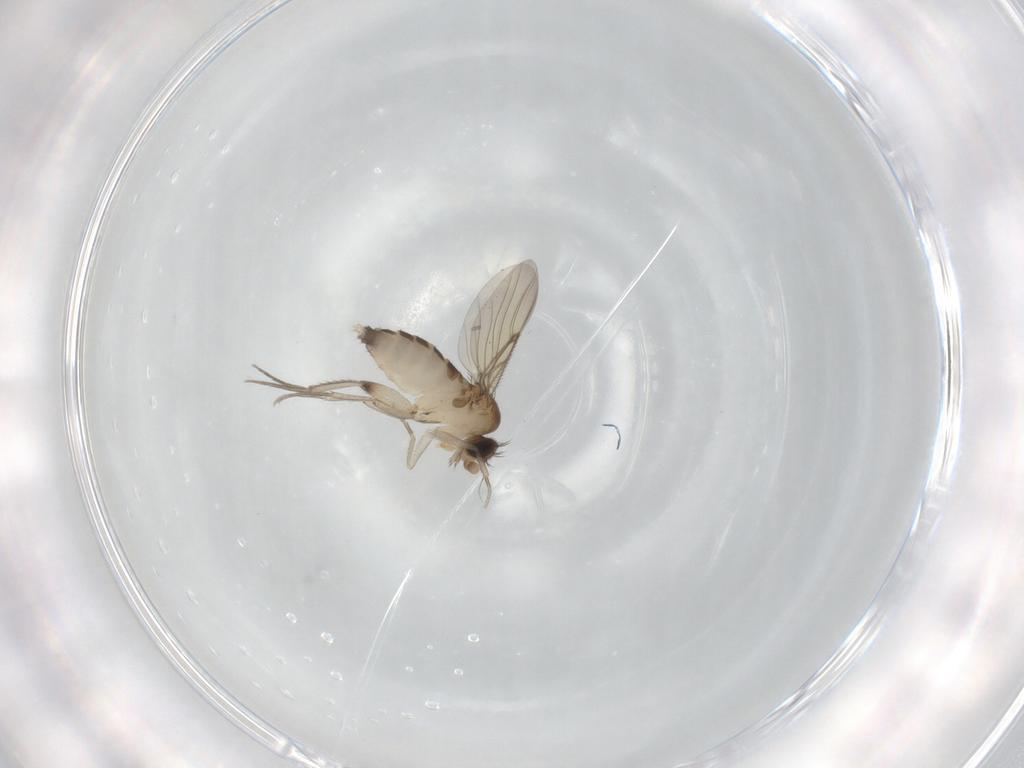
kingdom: Animalia
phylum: Arthropoda
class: Insecta
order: Diptera
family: Phoridae
